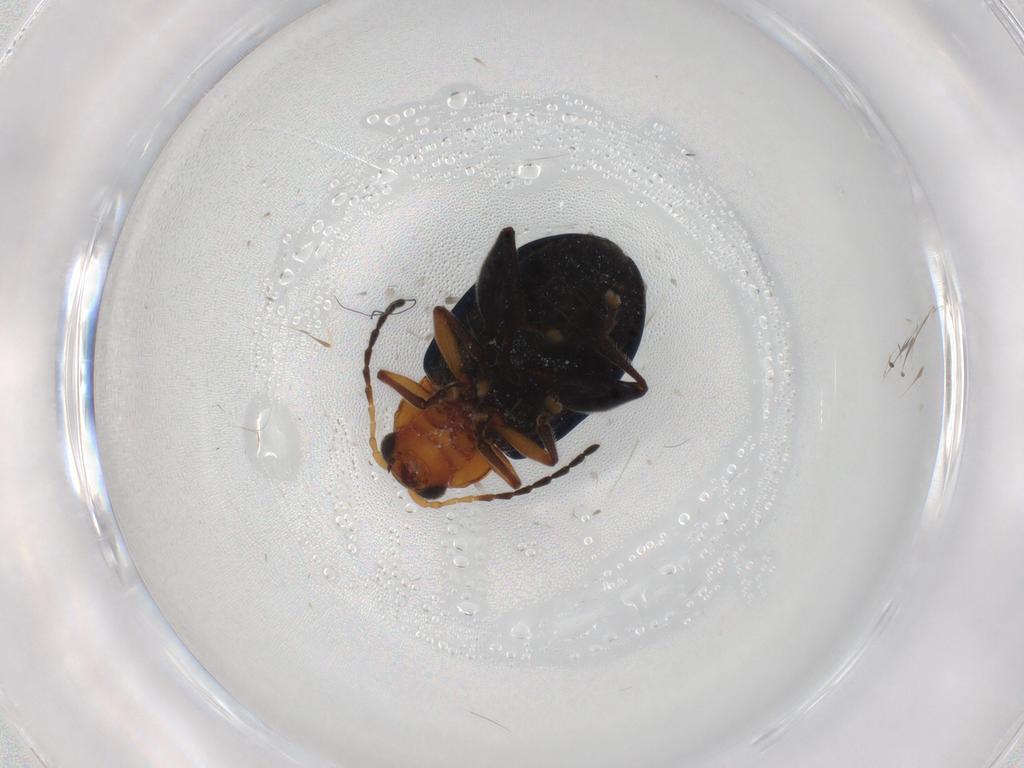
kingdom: Animalia
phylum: Arthropoda
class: Insecta
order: Coleoptera
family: Chrysomelidae
